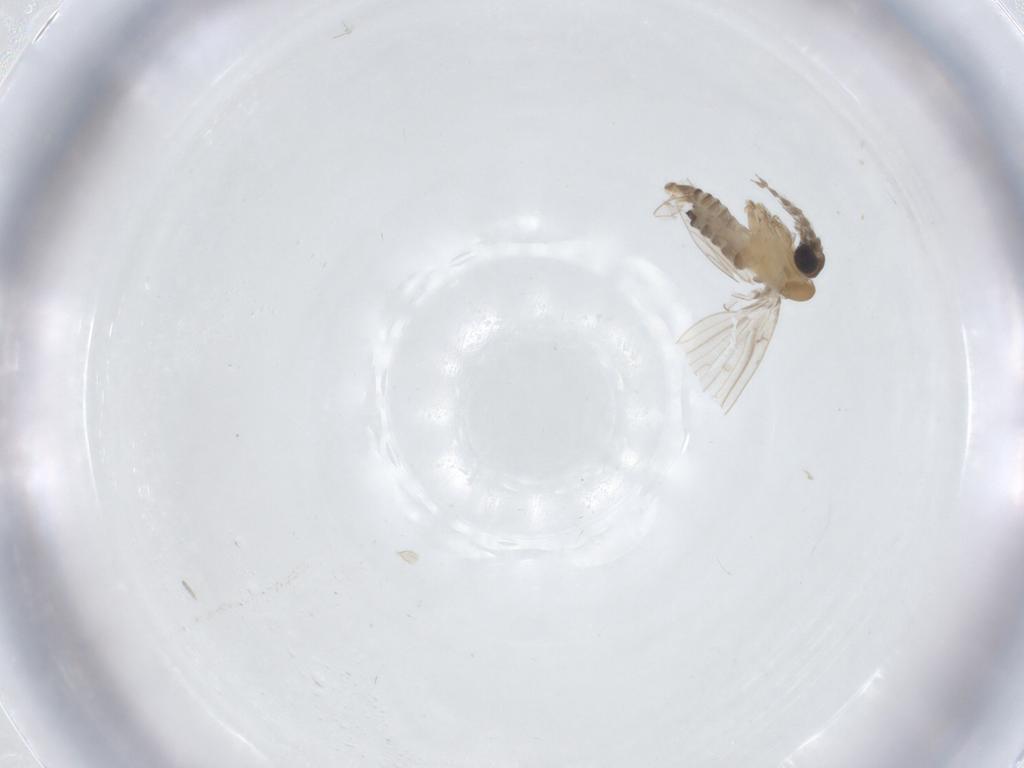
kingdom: Animalia
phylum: Arthropoda
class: Insecta
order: Diptera
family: Psychodidae
